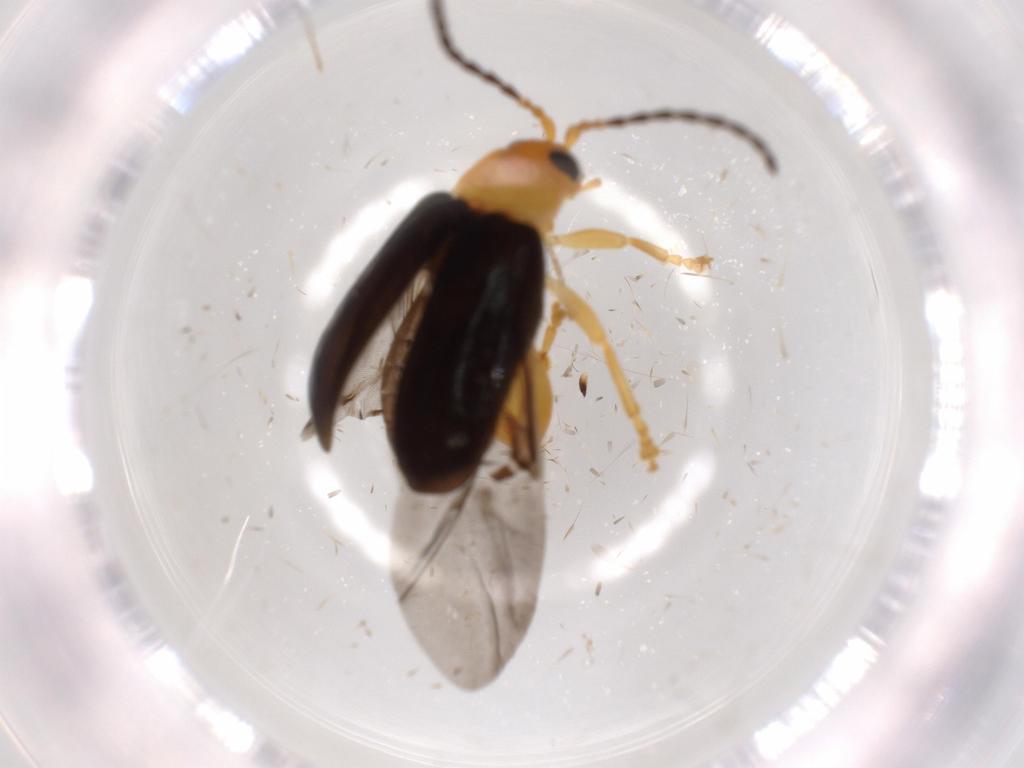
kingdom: Animalia
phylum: Arthropoda
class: Insecta
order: Coleoptera
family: Chrysomelidae
